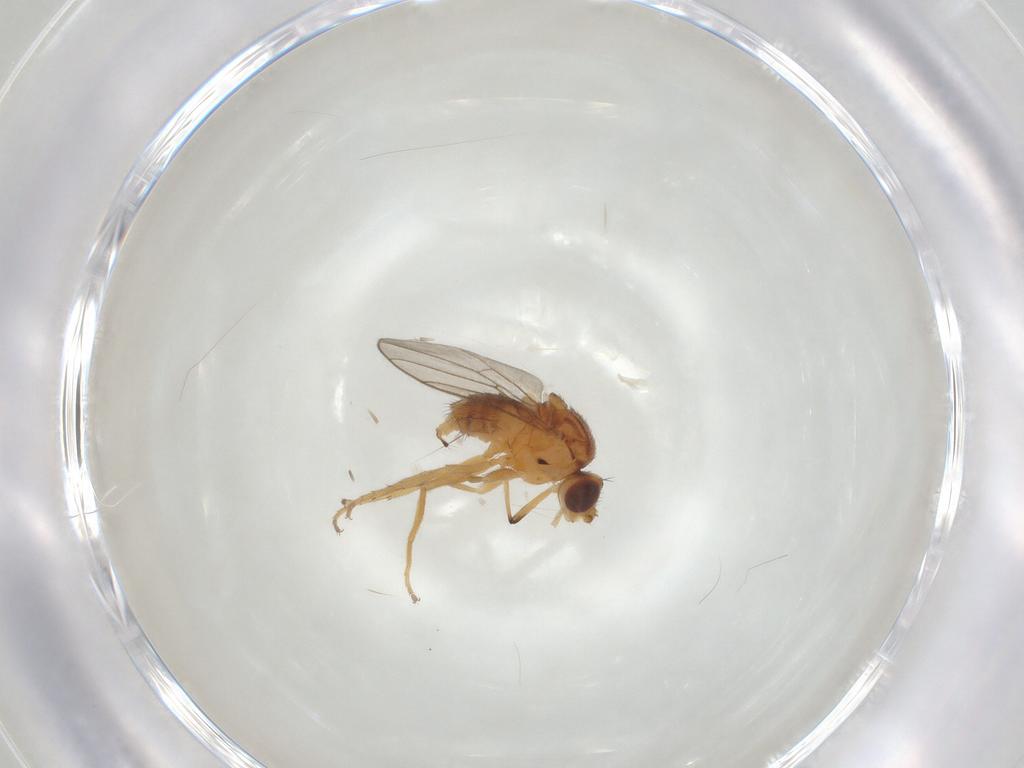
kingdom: Animalia
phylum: Arthropoda
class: Insecta
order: Diptera
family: Chloropidae
